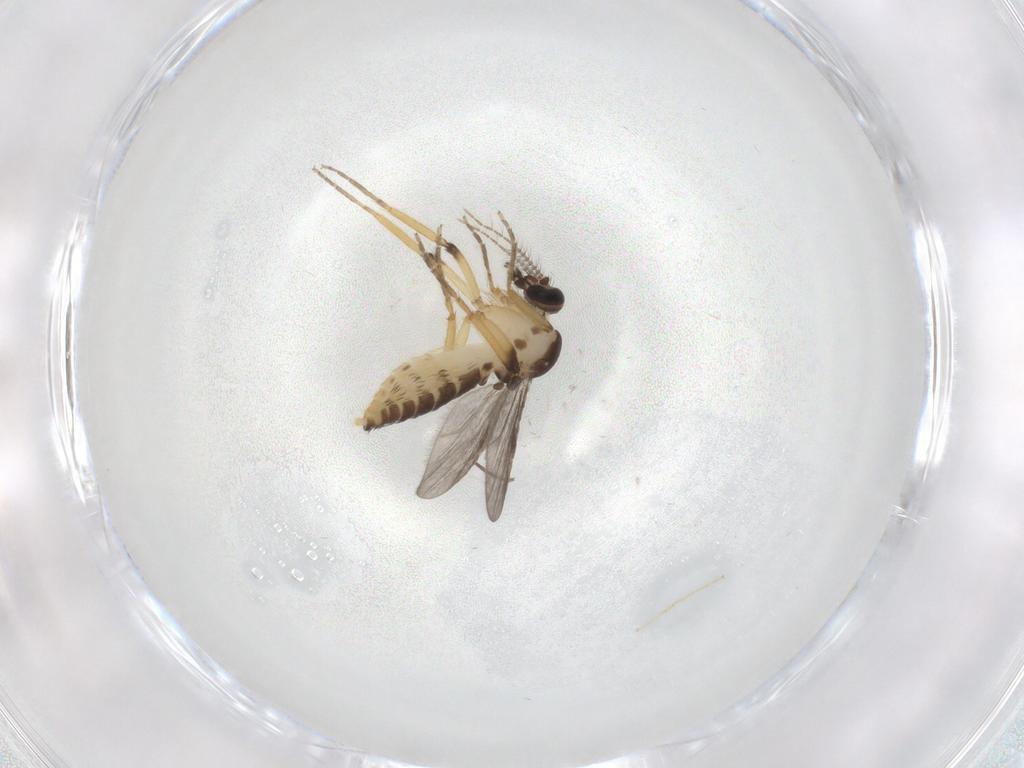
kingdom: Animalia
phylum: Arthropoda
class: Insecta
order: Diptera
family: Ceratopogonidae
